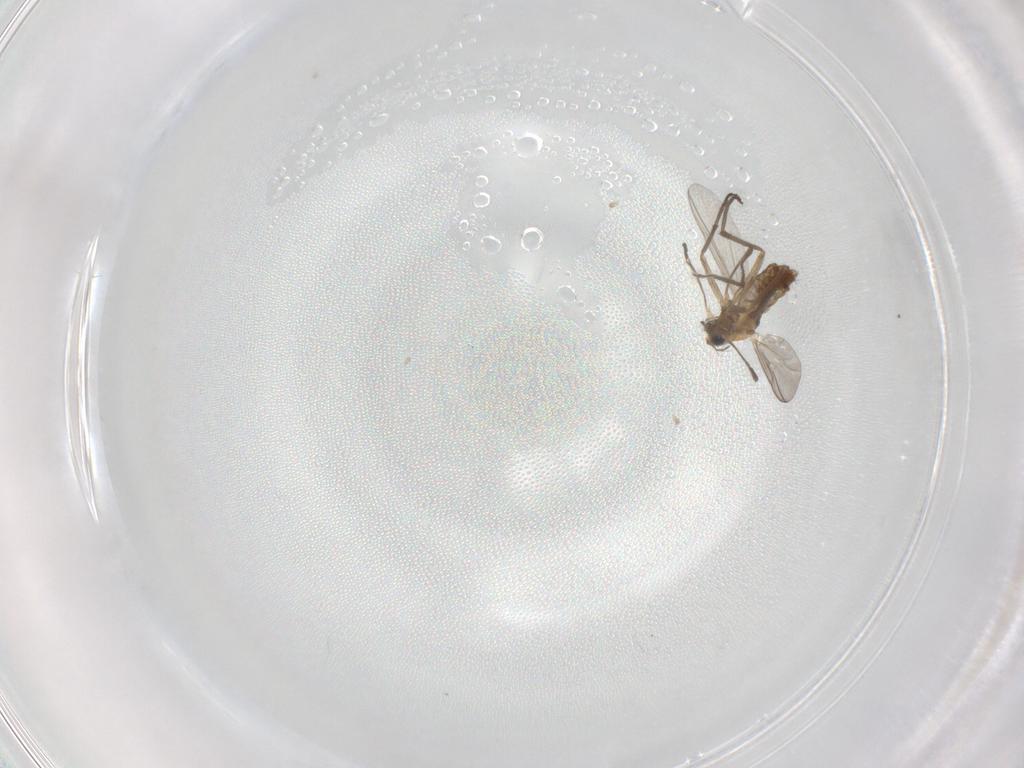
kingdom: Animalia
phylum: Arthropoda
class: Insecta
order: Diptera
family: Chironomidae
